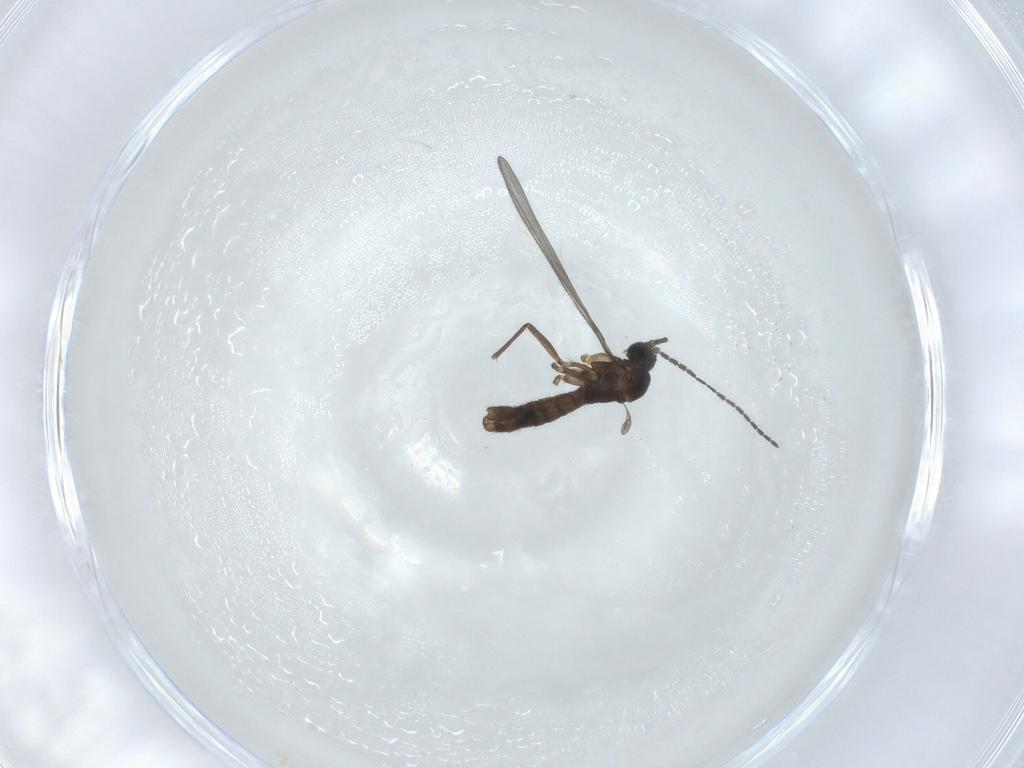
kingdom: Animalia
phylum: Arthropoda
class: Insecta
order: Diptera
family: Sciaridae
